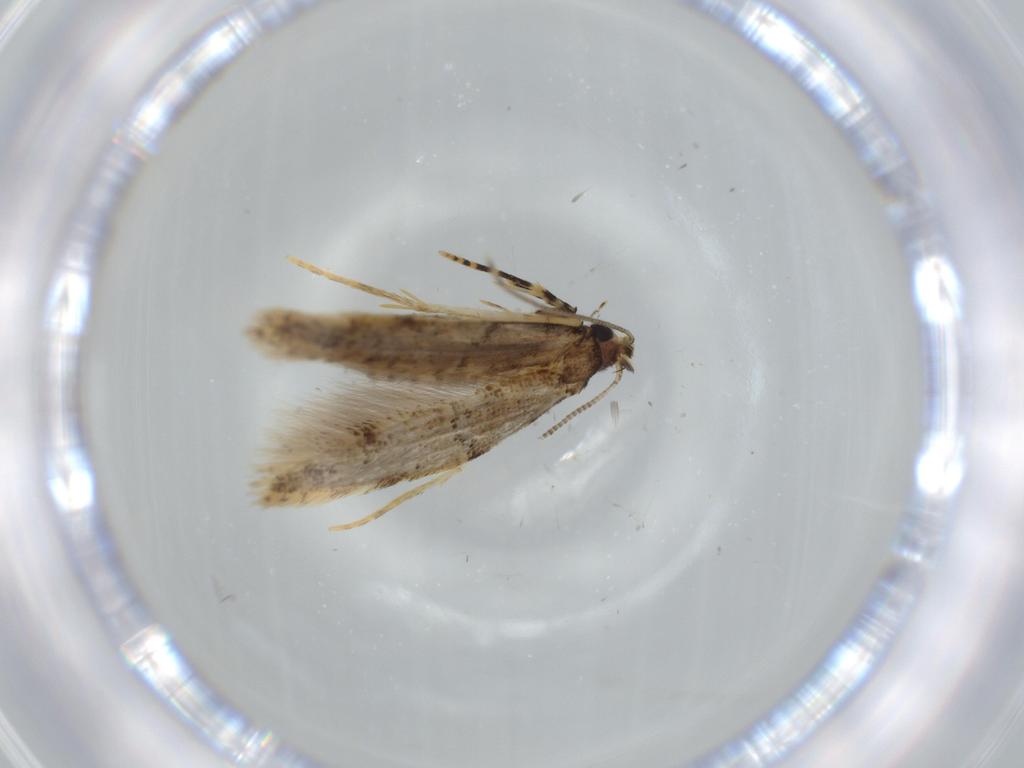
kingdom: Animalia
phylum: Arthropoda
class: Insecta
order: Lepidoptera
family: Tineidae
